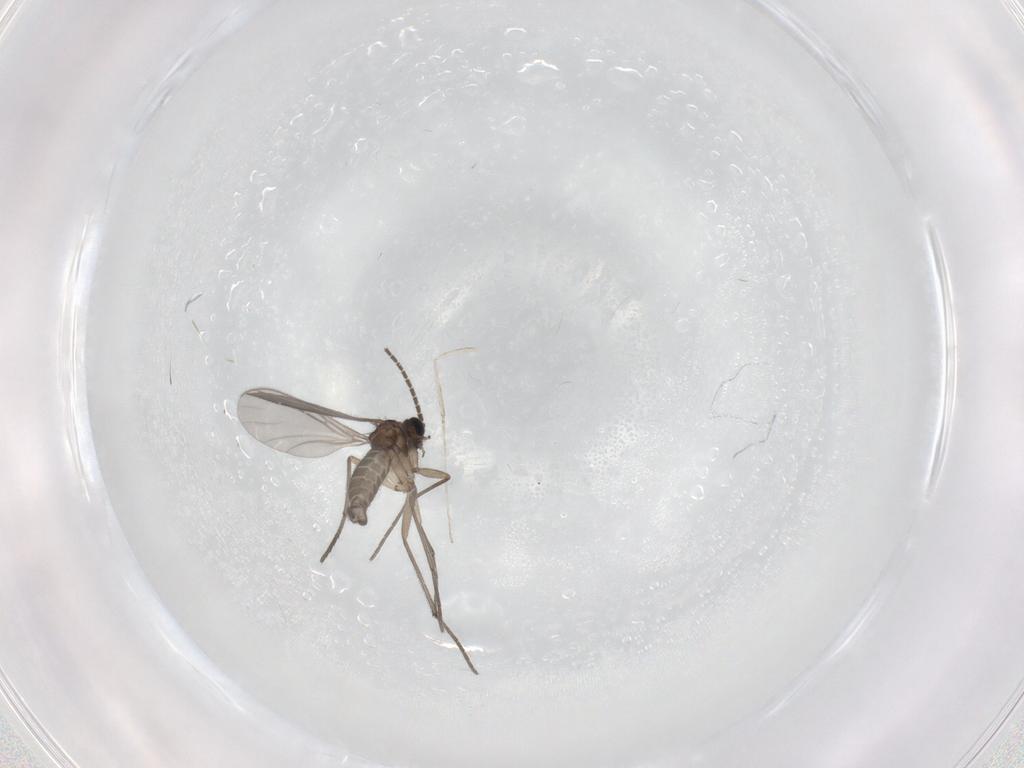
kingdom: Animalia
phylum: Arthropoda
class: Insecta
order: Diptera
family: Sciaridae
